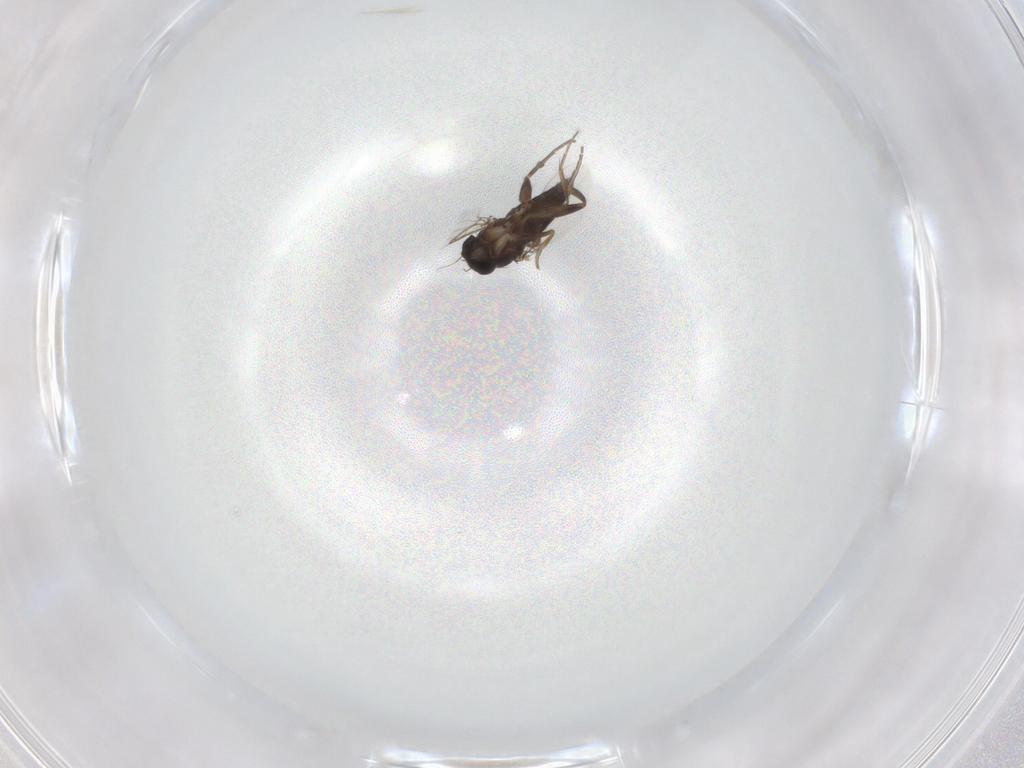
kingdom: Animalia
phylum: Arthropoda
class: Insecta
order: Diptera
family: Phoridae
